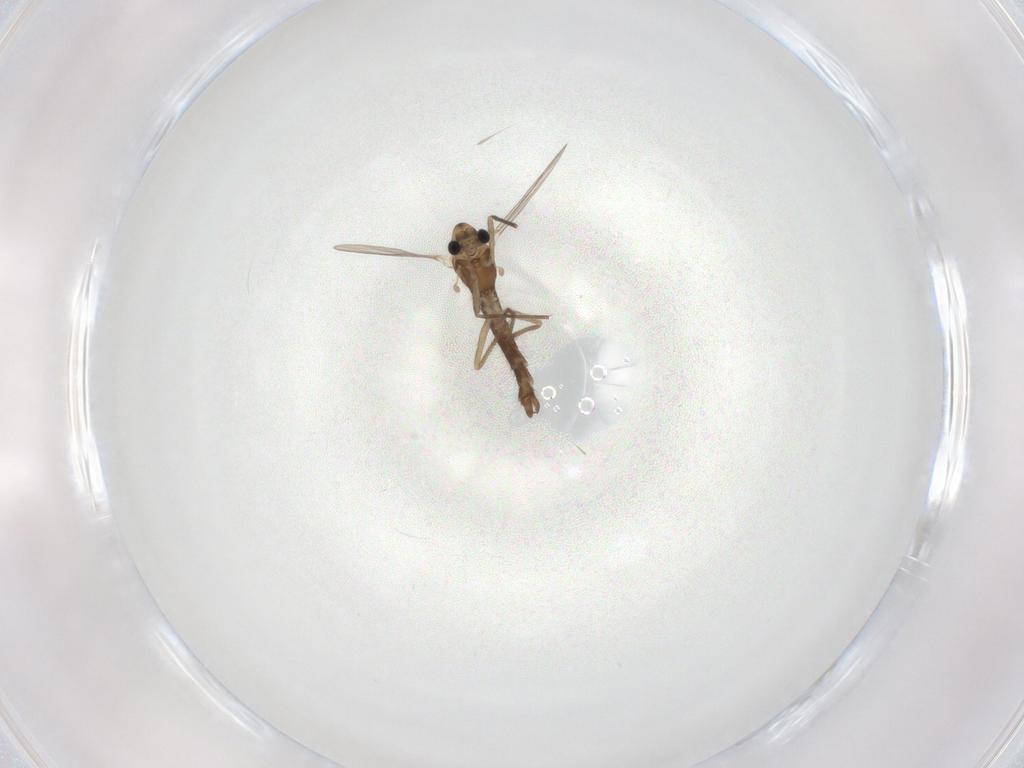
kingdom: Animalia
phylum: Arthropoda
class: Insecta
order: Diptera
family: Chironomidae
